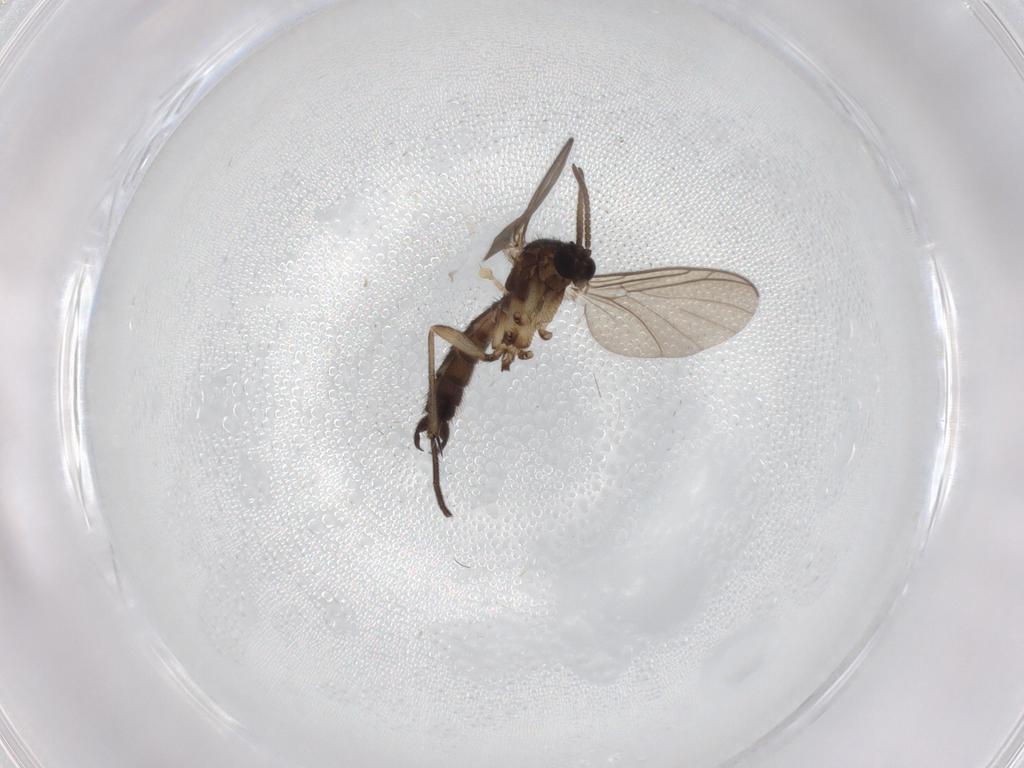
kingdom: Animalia
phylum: Arthropoda
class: Insecta
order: Diptera
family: Keroplatidae
